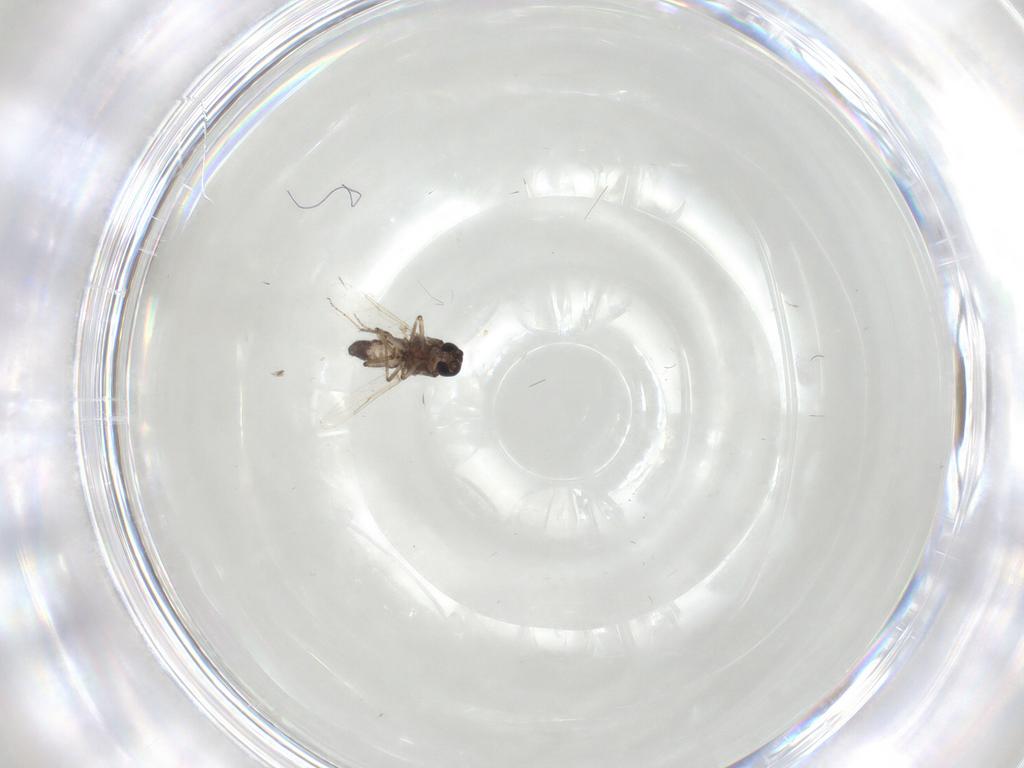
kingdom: Animalia
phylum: Arthropoda
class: Insecta
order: Diptera
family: Ceratopogonidae
